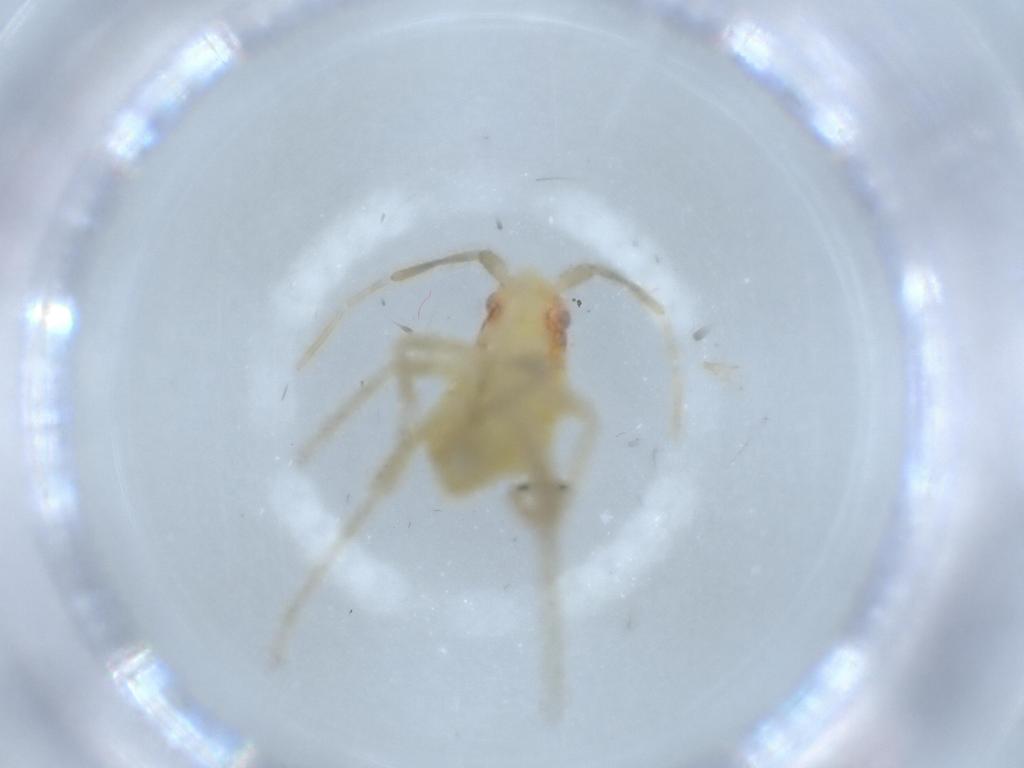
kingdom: Animalia
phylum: Arthropoda
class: Insecta
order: Hemiptera
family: Miridae
